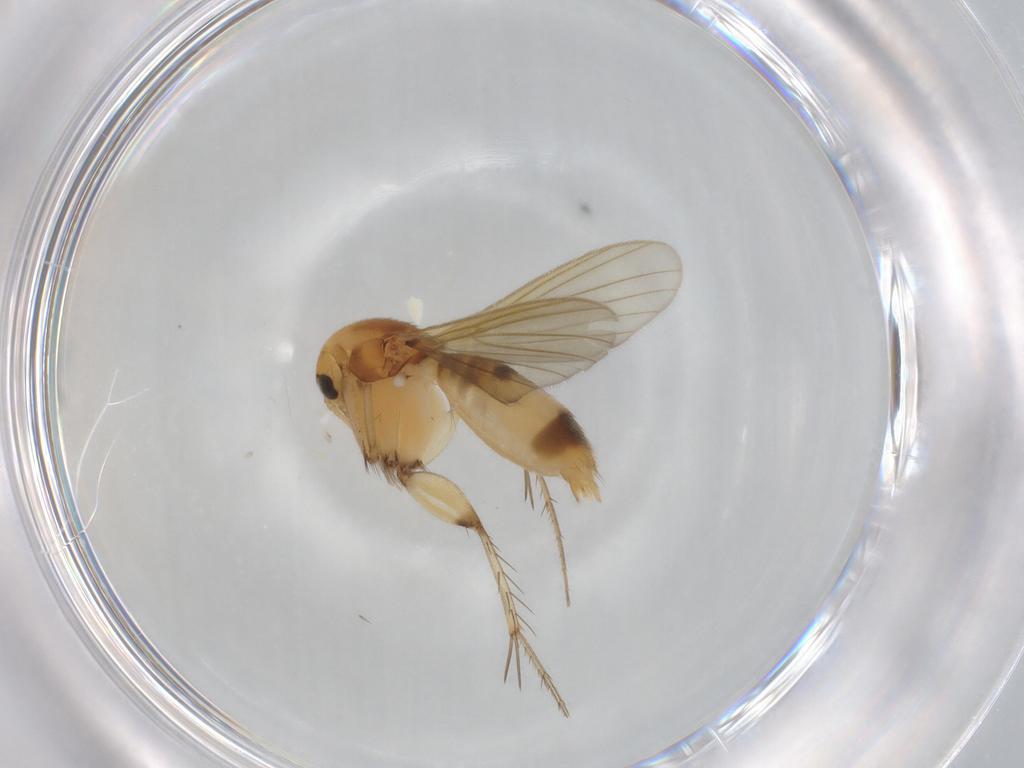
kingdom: Animalia
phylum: Arthropoda
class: Insecta
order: Diptera
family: Mycetophilidae
